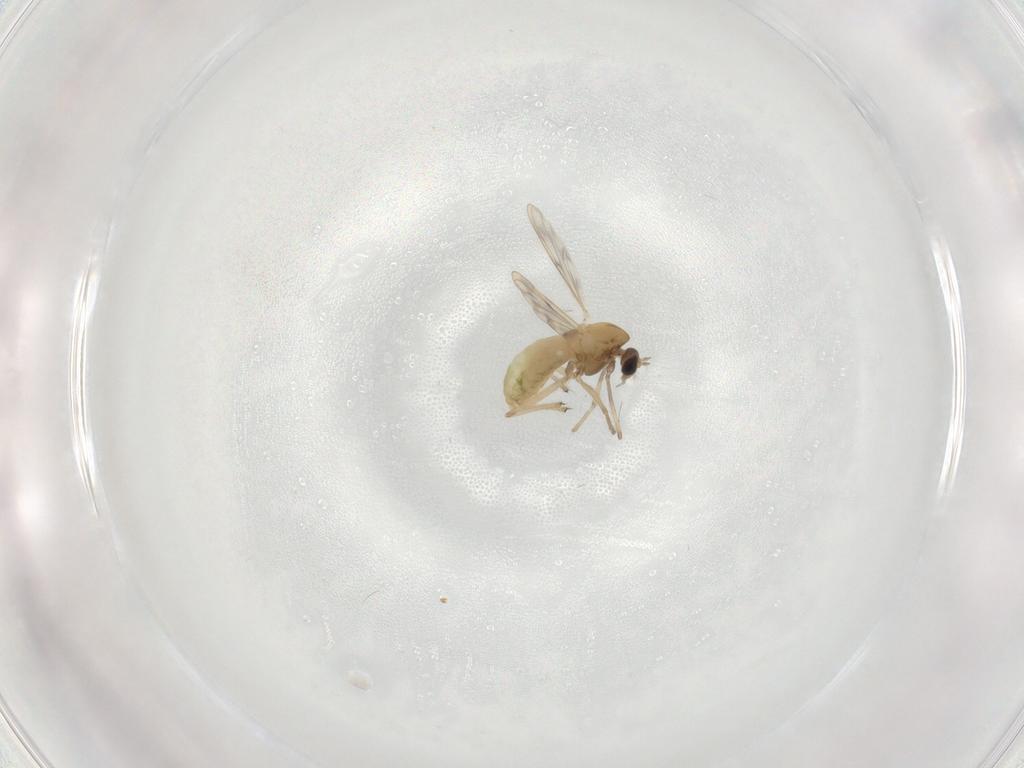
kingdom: Animalia
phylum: Arthropoda
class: Insecta
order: Diptera
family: Chironomidae
